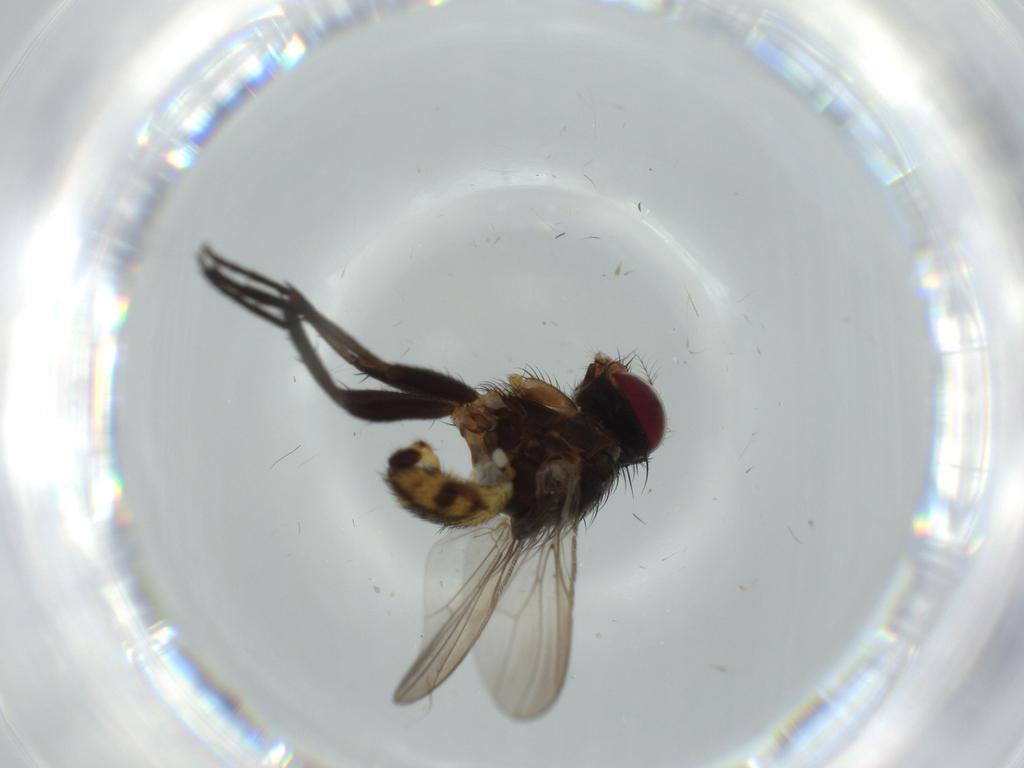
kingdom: Animalia
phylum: Arthropoda
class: Insecta
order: Diptera
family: Anthomyiidae
